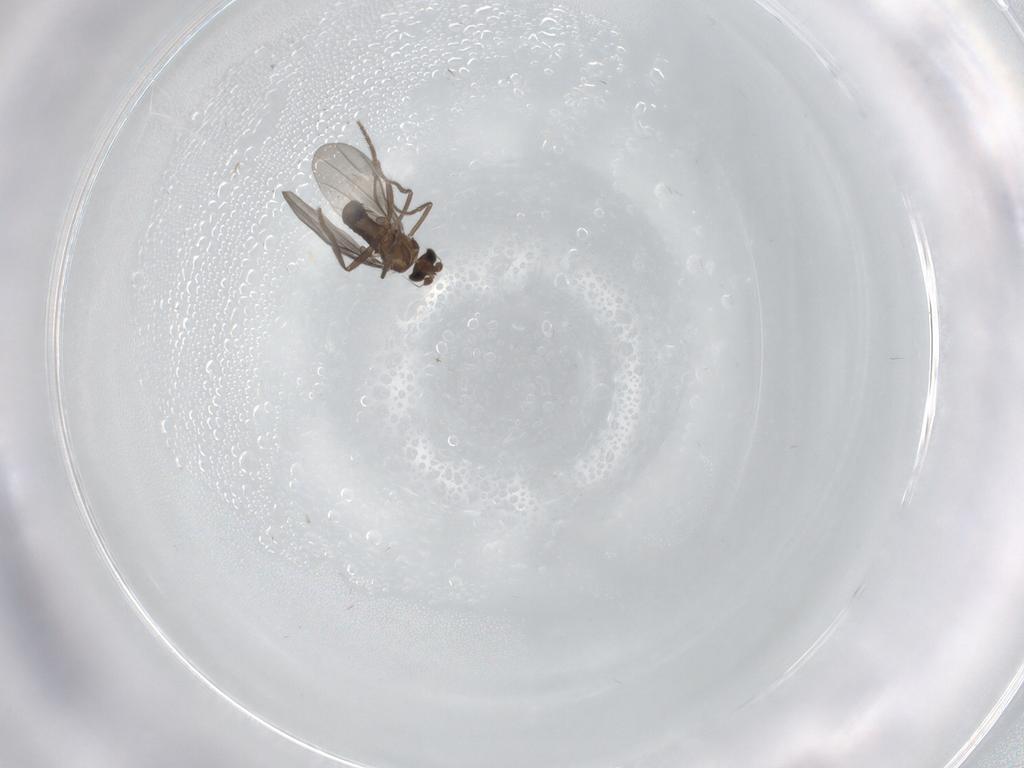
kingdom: Animalia
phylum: Arthropoda
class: Insecta
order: Diptera
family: Phoridae
